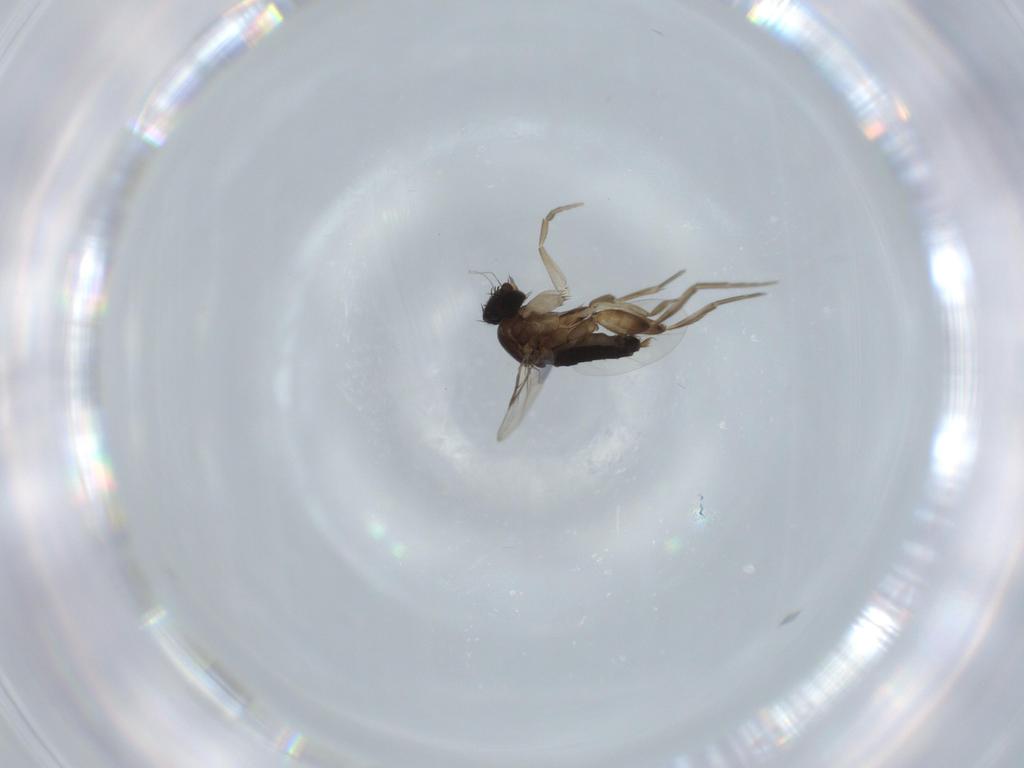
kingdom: Animalia
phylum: Arthropoda
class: Insecta
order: Diptera
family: Phoridae
